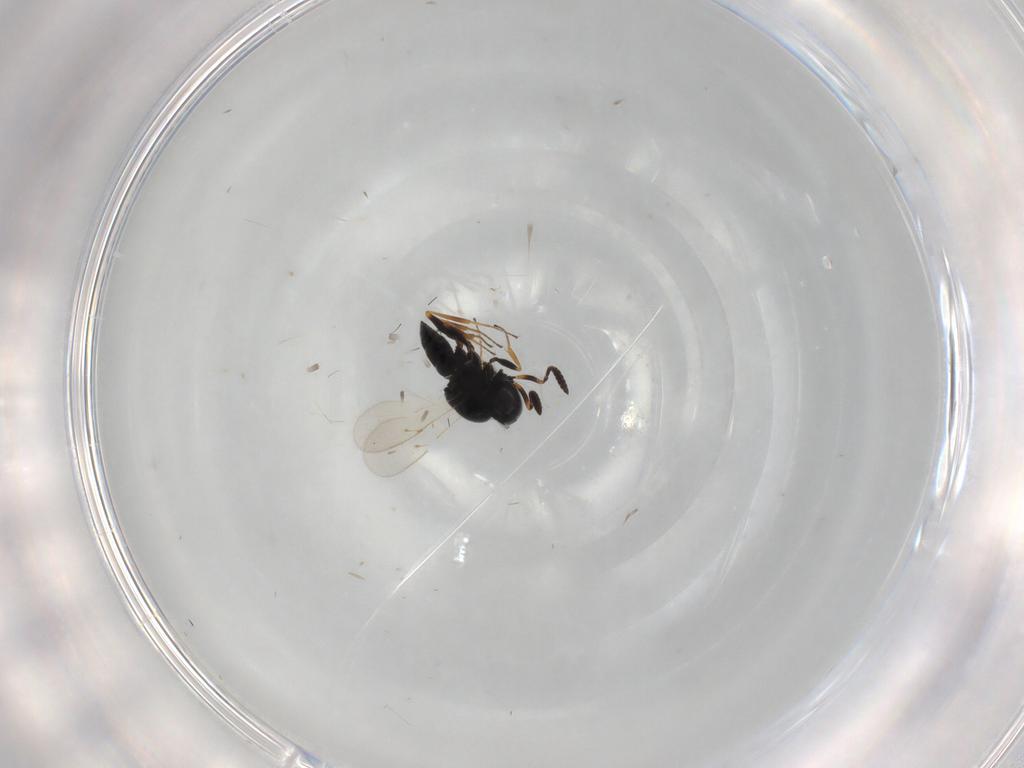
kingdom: Animalia
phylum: Arthropoda
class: Insecta
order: Hymenoptera
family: Scelionidae
